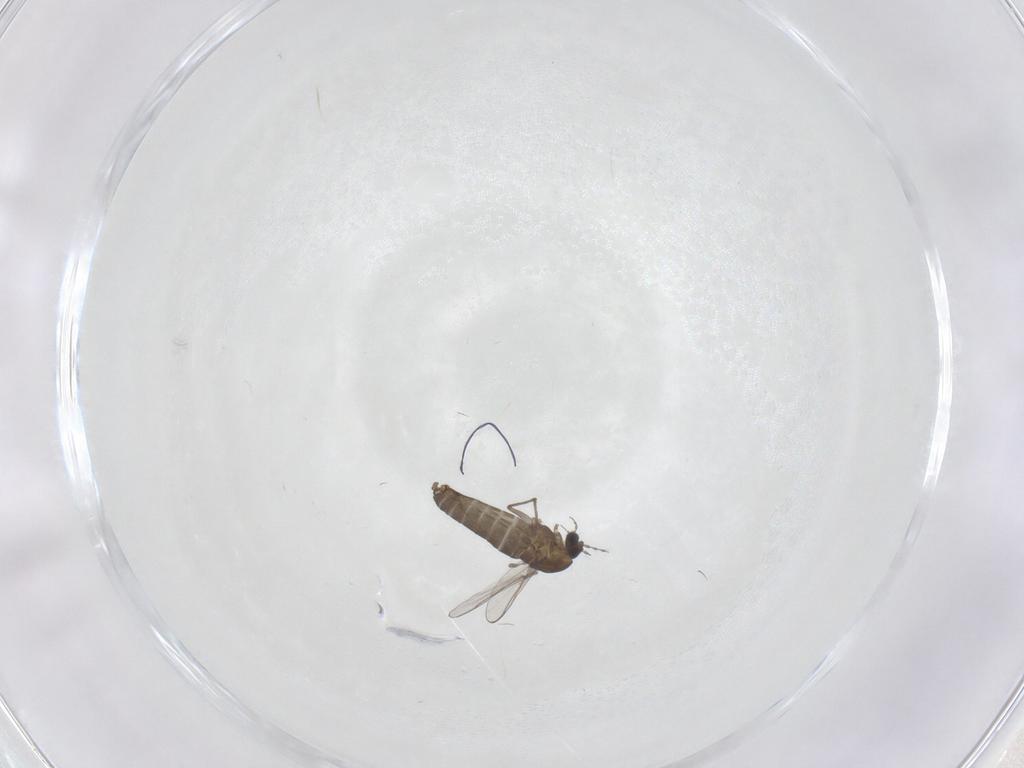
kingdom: Animalia
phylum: Arthropoda
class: Insecta
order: Diptera
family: Chironomidae
